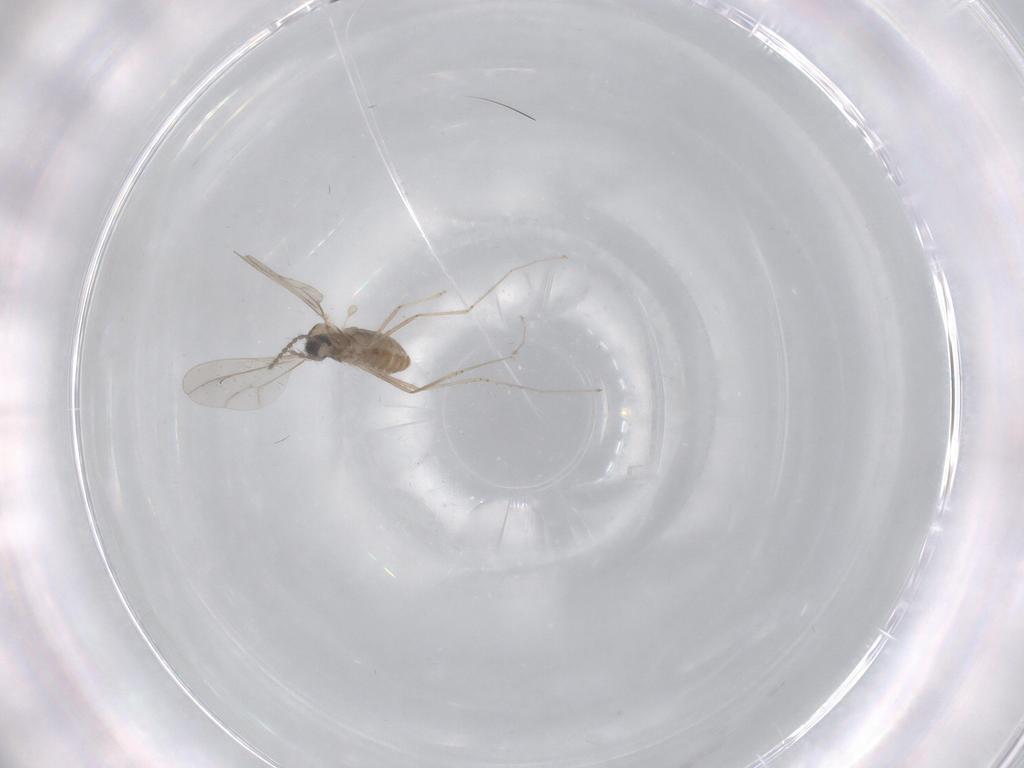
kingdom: Animalia
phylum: Arthropoda
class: Insecta
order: Diptera
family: Cecidomyiidae
